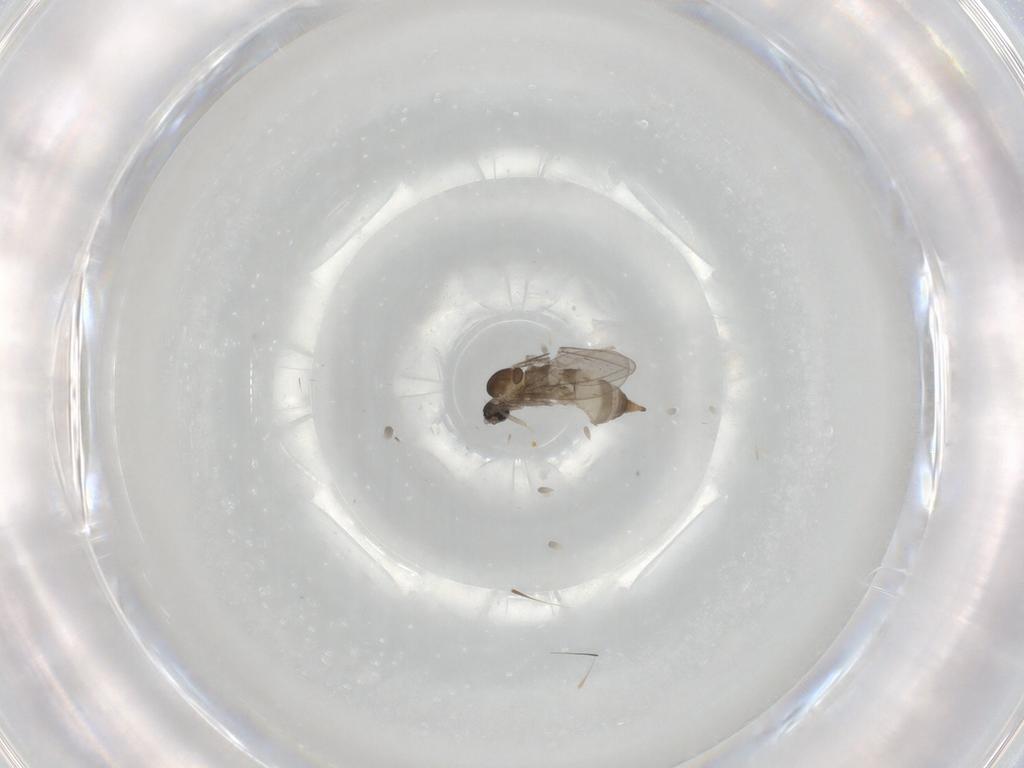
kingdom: Animalia
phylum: Arthropoda
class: Insecta
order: Diptera
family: Cecidomyiidae
